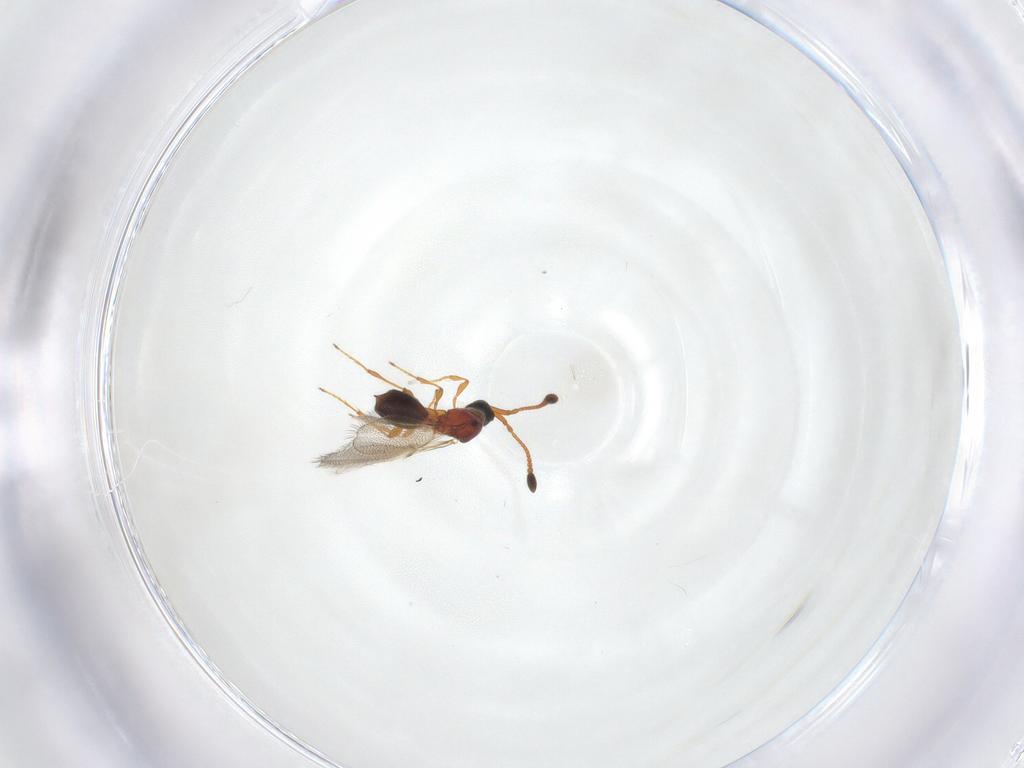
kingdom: Animalia
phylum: Arthropoda
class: Insecta
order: Hymenoptera
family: Diapriidae
